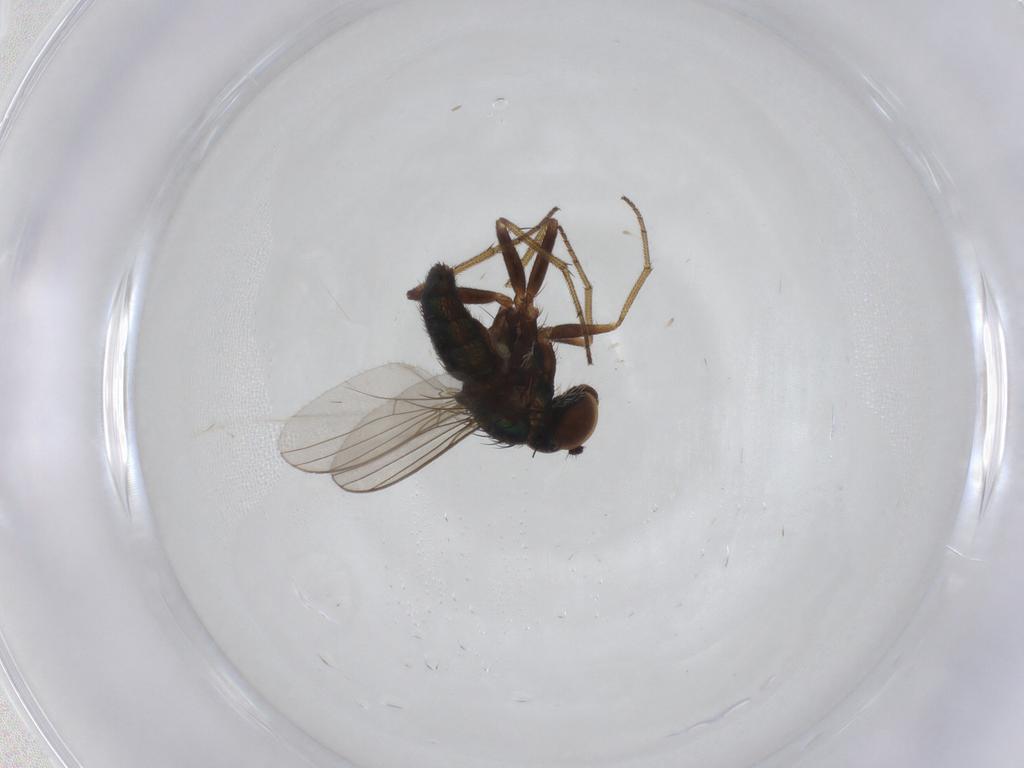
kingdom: Animalia
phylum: Arthropoda
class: Insecta
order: Diptera
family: Dolichopodidae
